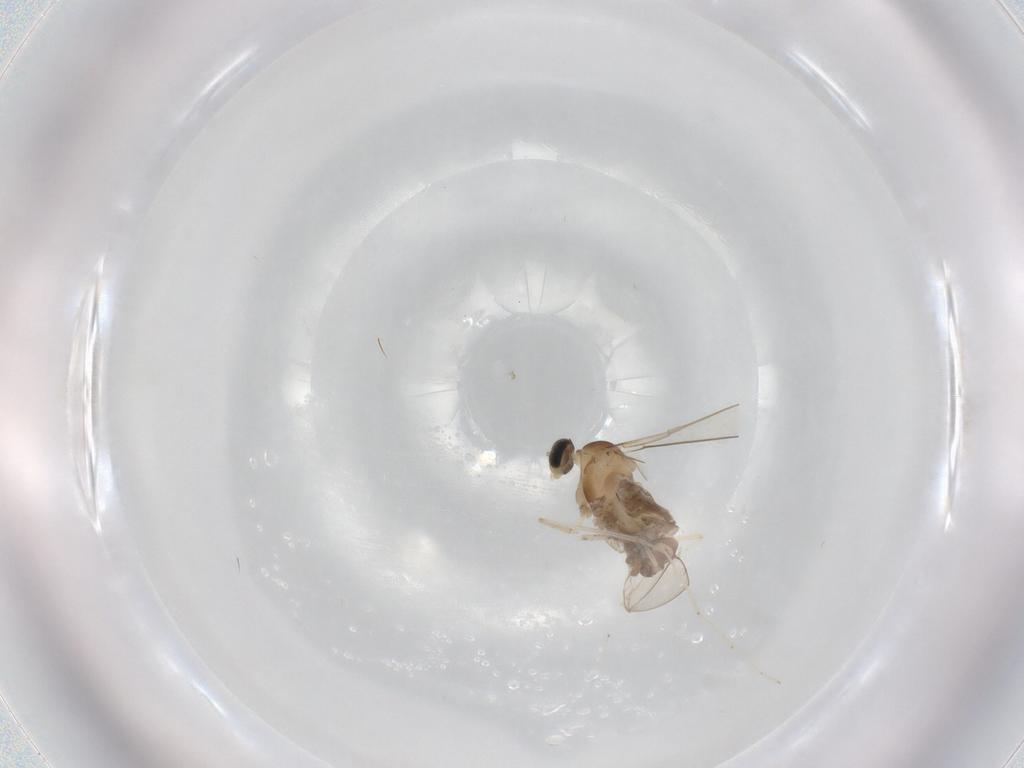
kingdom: Animalia
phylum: Arthropoda
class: Insecta
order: Diptera
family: Cecidomyiidae
